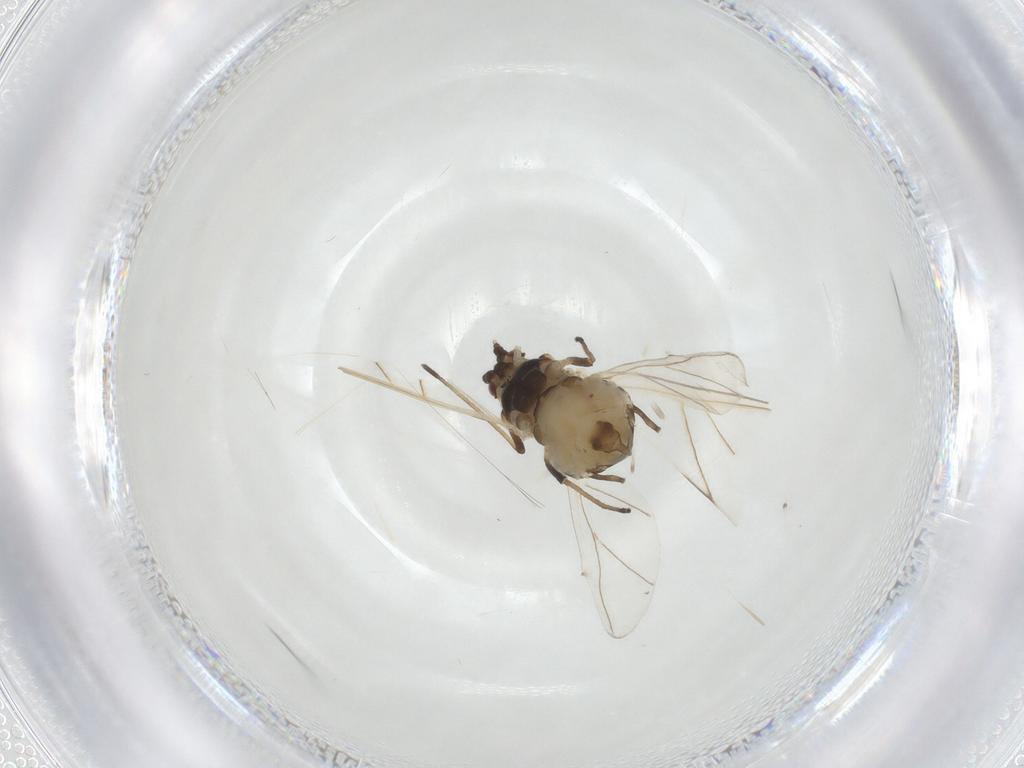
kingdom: Animalia
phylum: Arthropoda
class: Insecta
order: Hemiptera
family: Aphididae
